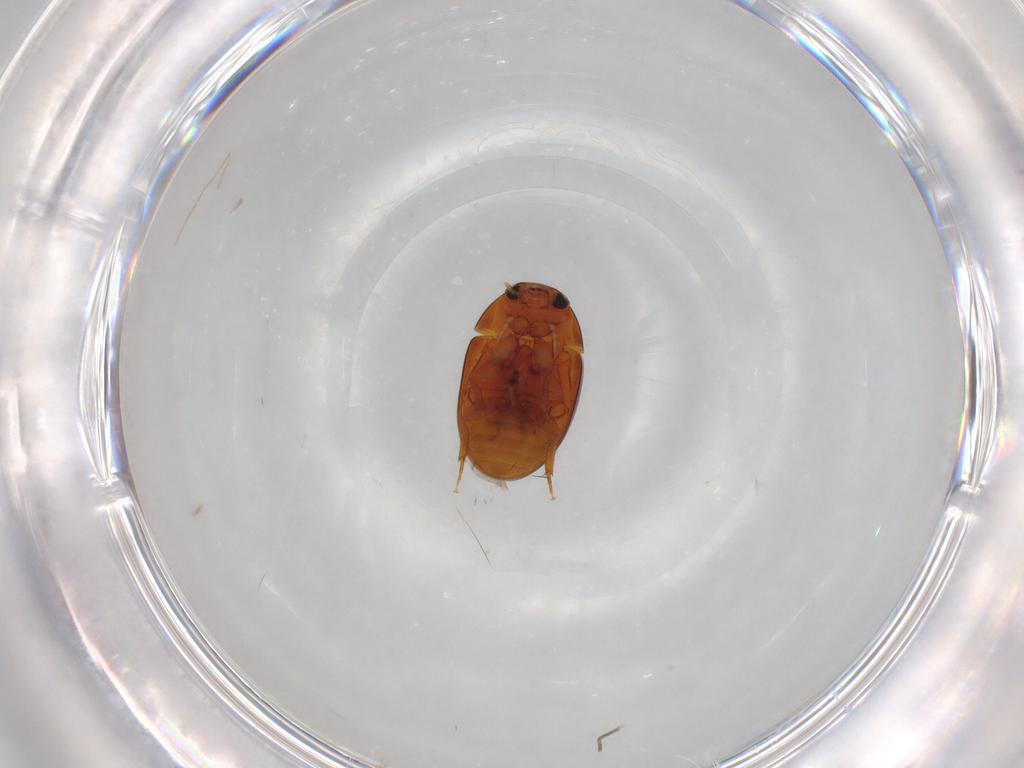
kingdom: Animalia
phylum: Arthropoda
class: Insecta
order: Coleoptera
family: Phalacridae
